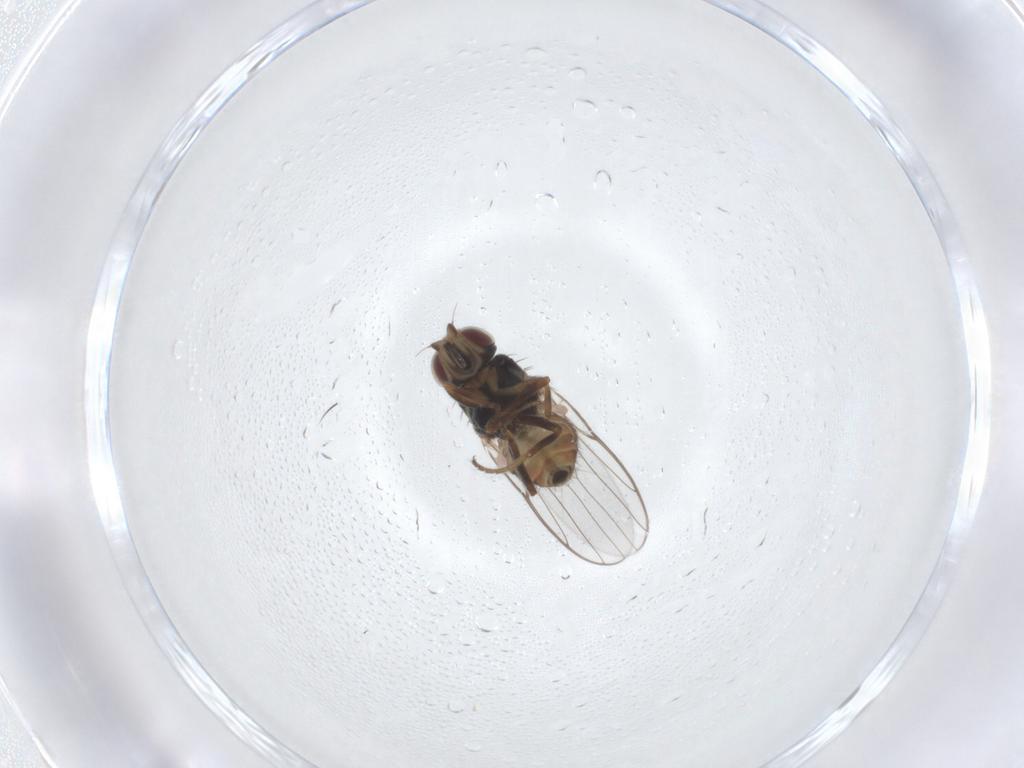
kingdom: Animalia
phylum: Arthropoda
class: Insecta
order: Diptera
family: Chloropidae
